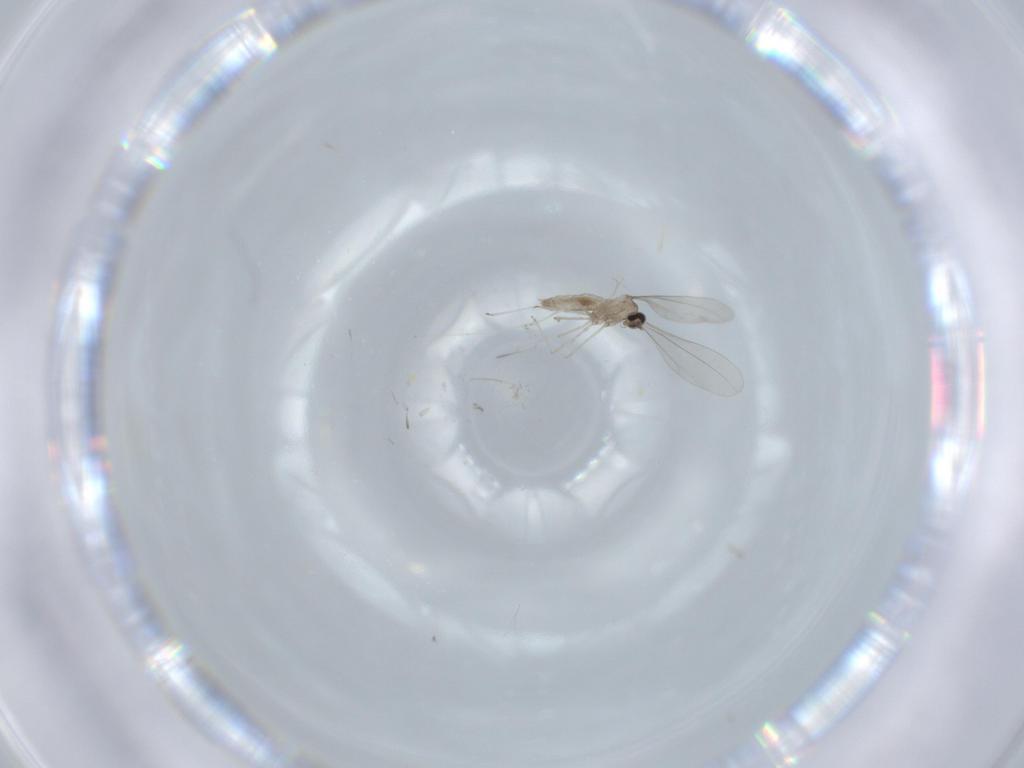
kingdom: Animalia
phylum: Arthropoda
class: Insecta
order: Diptera
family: Cecidomyiidae
